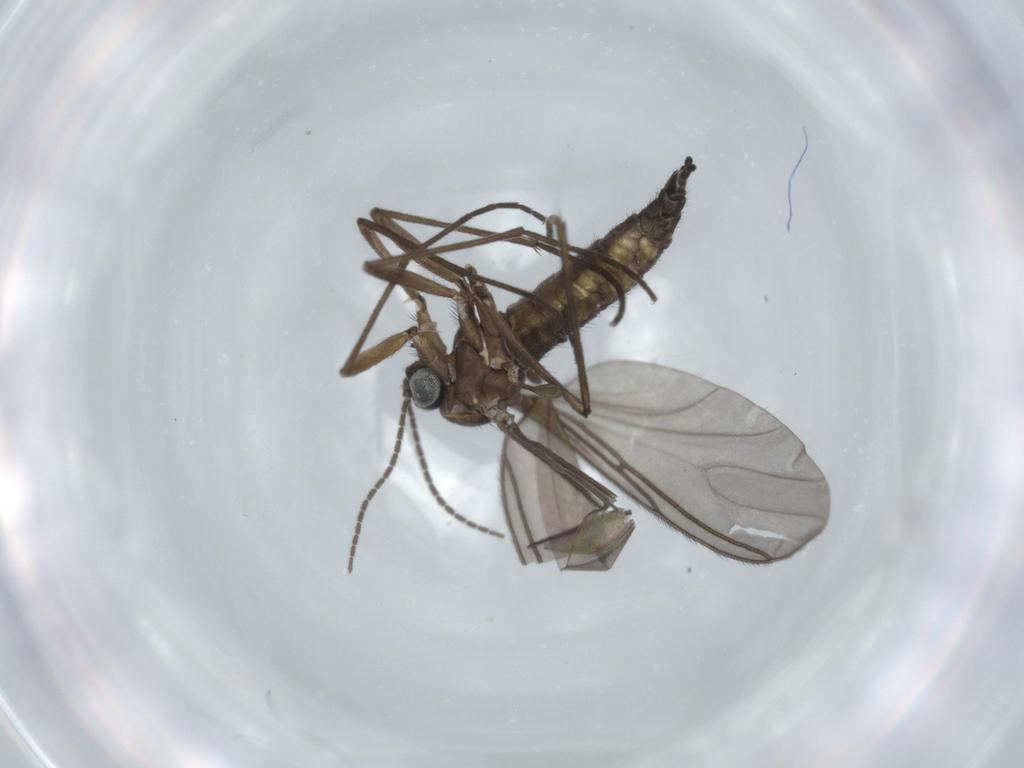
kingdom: Animalia
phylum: Arthropoda
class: Insecta
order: Diptera
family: Sciaridae
